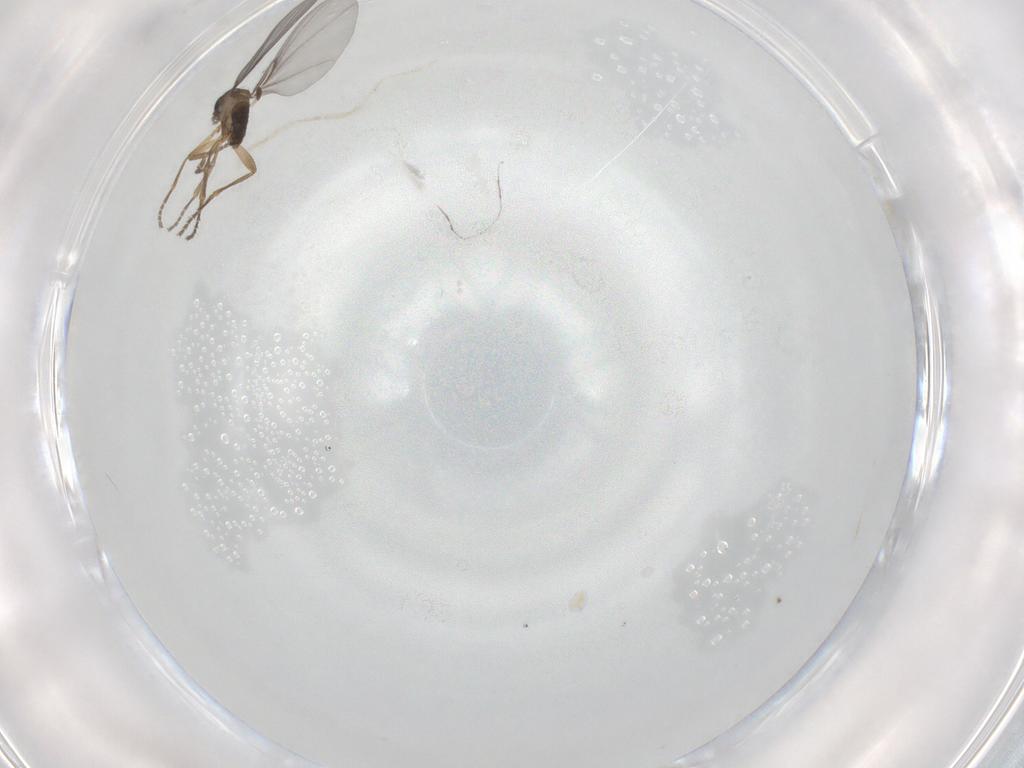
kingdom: Animalia
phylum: Arthropoda
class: Insecta
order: Diptera
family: Phoridae
